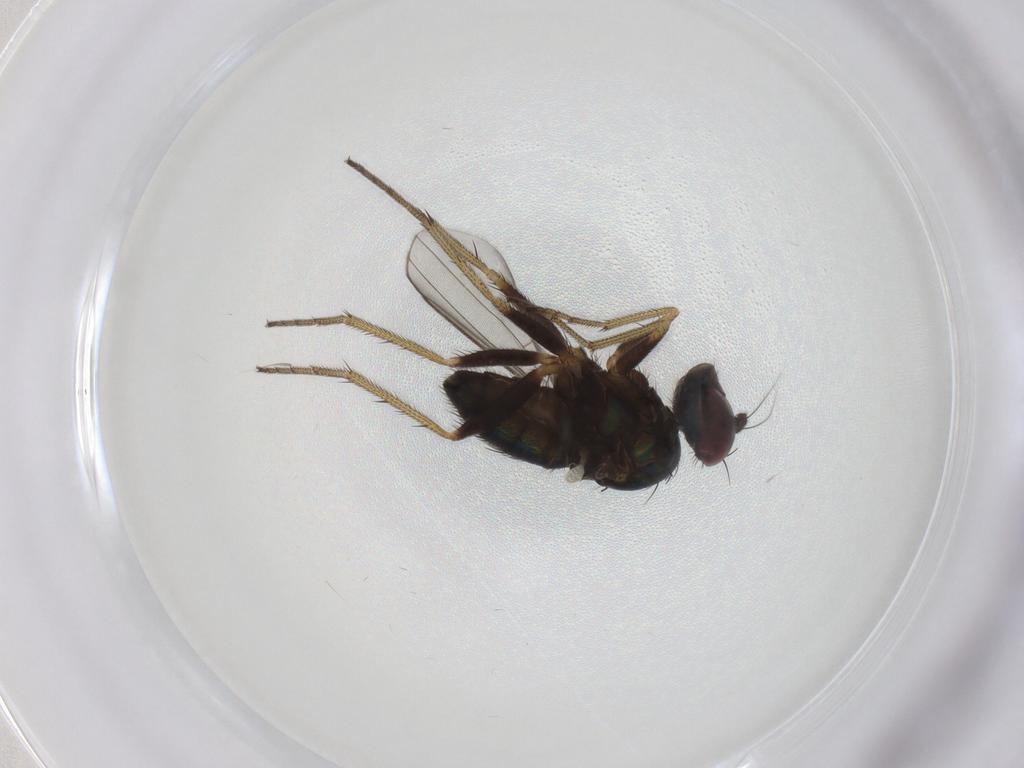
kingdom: Animalia
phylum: Arthropoda
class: Insecta
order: Diptera
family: Dolichopodidae
